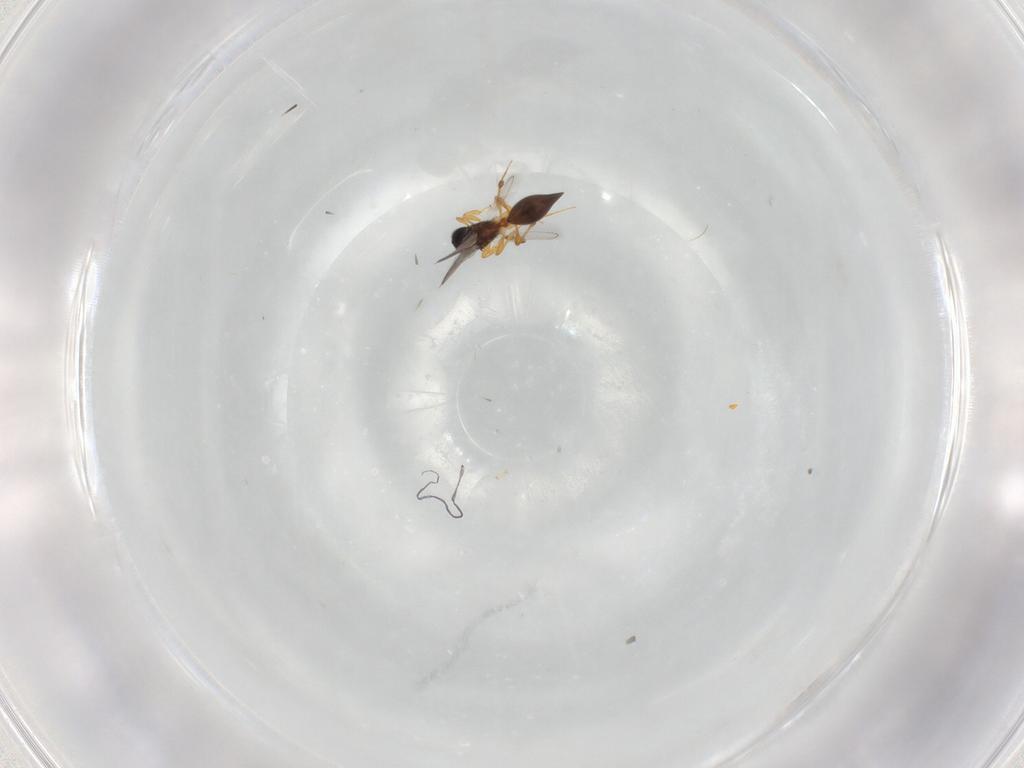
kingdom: Animalia
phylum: Arthropoda
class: Insecta
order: Hymenoptera
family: Platygastridae
